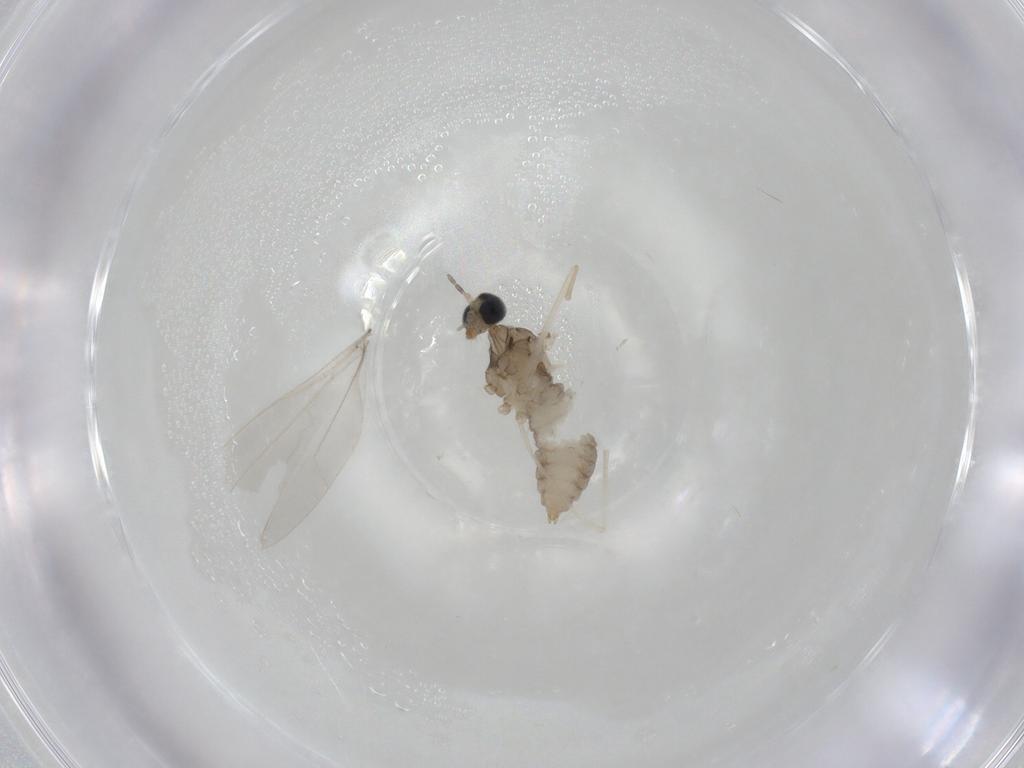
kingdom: Animalia
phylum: Arthropoda
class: Insecta
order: Diptera
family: Cecidomyiidae
